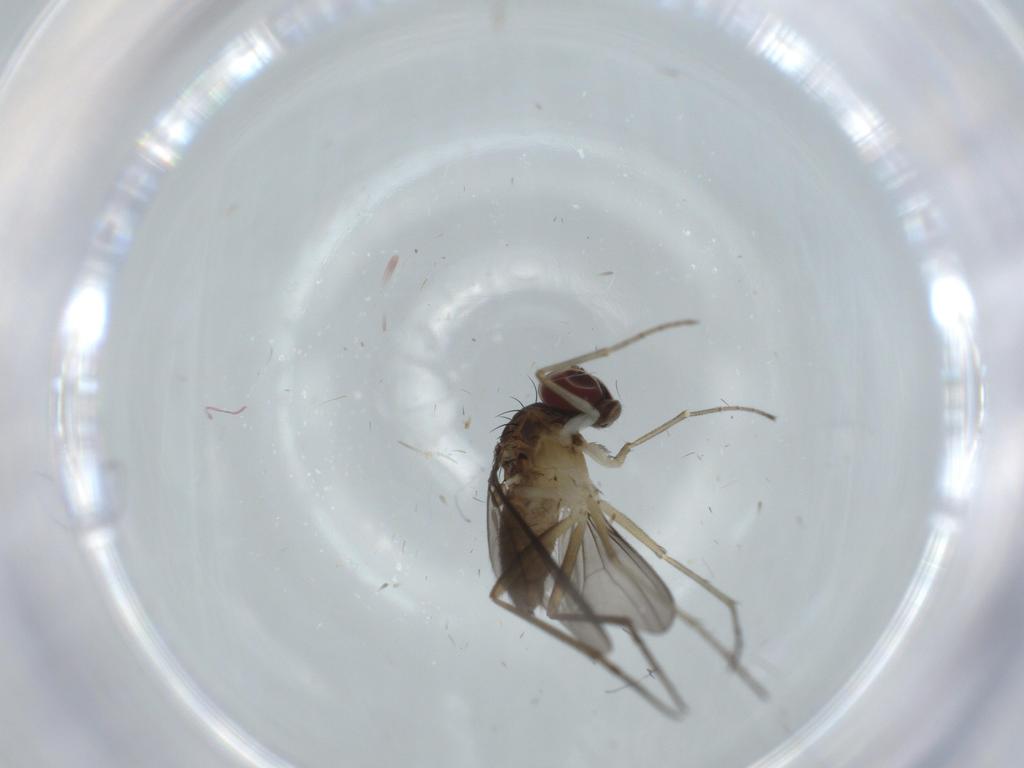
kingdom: Animalia
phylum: Arthropoda
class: Insecta
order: Diptera
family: Dolichopodidae
